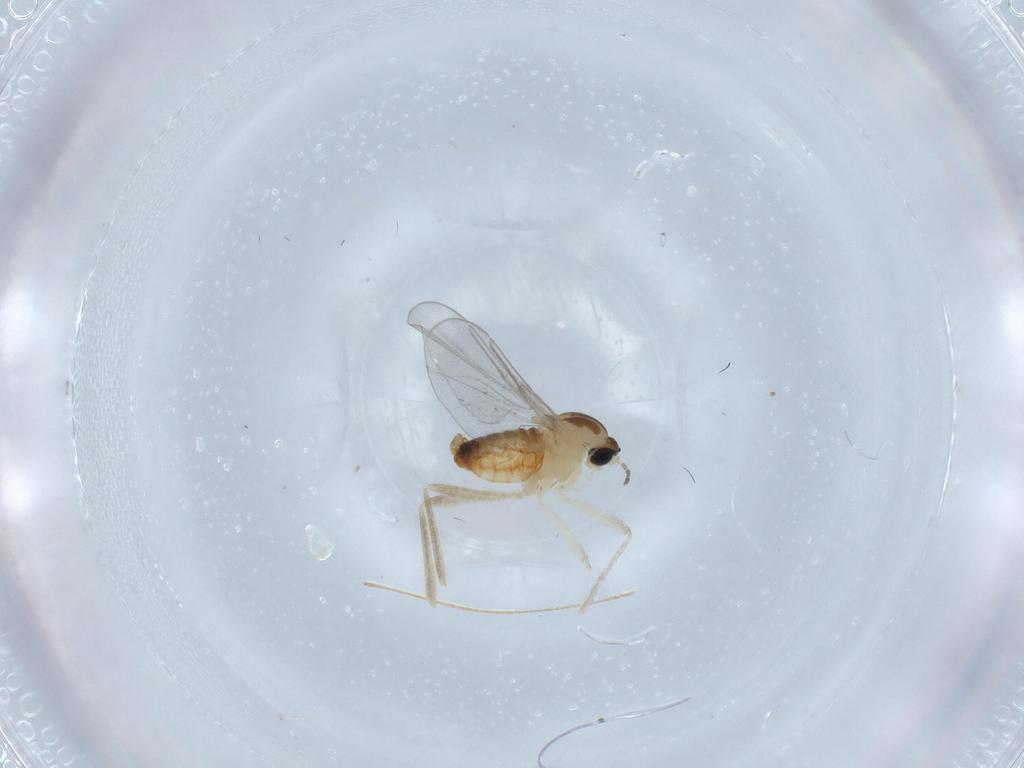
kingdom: Animalia
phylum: Arthropoda
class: Insecta
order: Diptera
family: Cecidomyiidae
